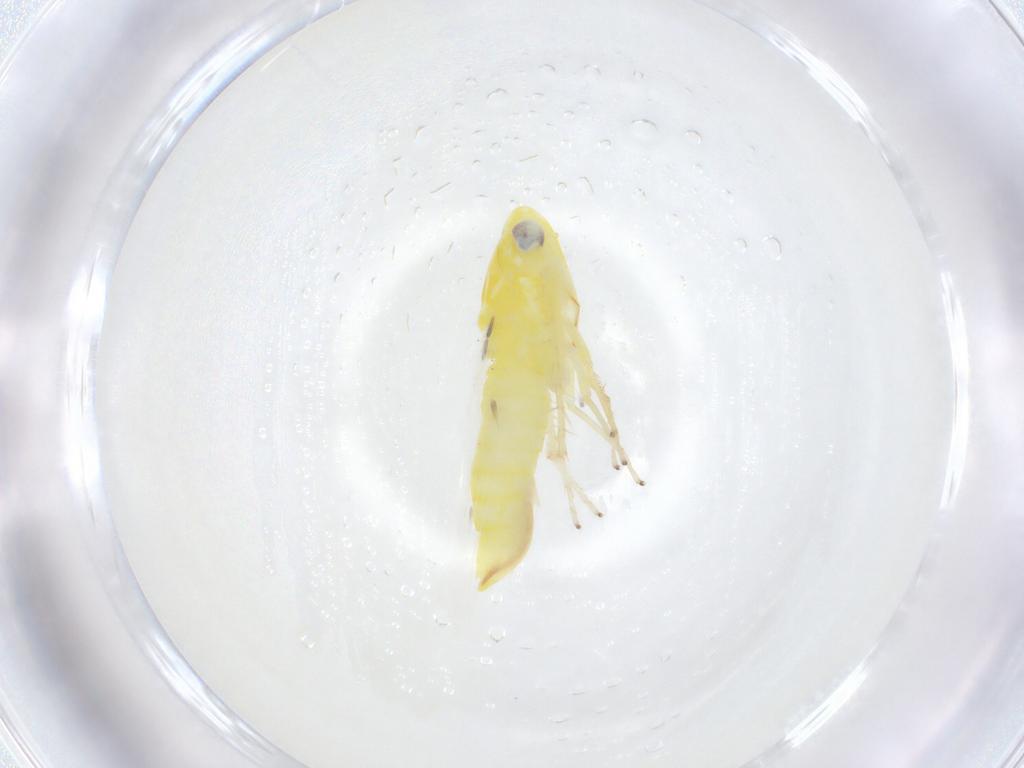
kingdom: Animalia
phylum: Arthropoda
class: Insecta
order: Hemiptera
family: Cicadellidae
